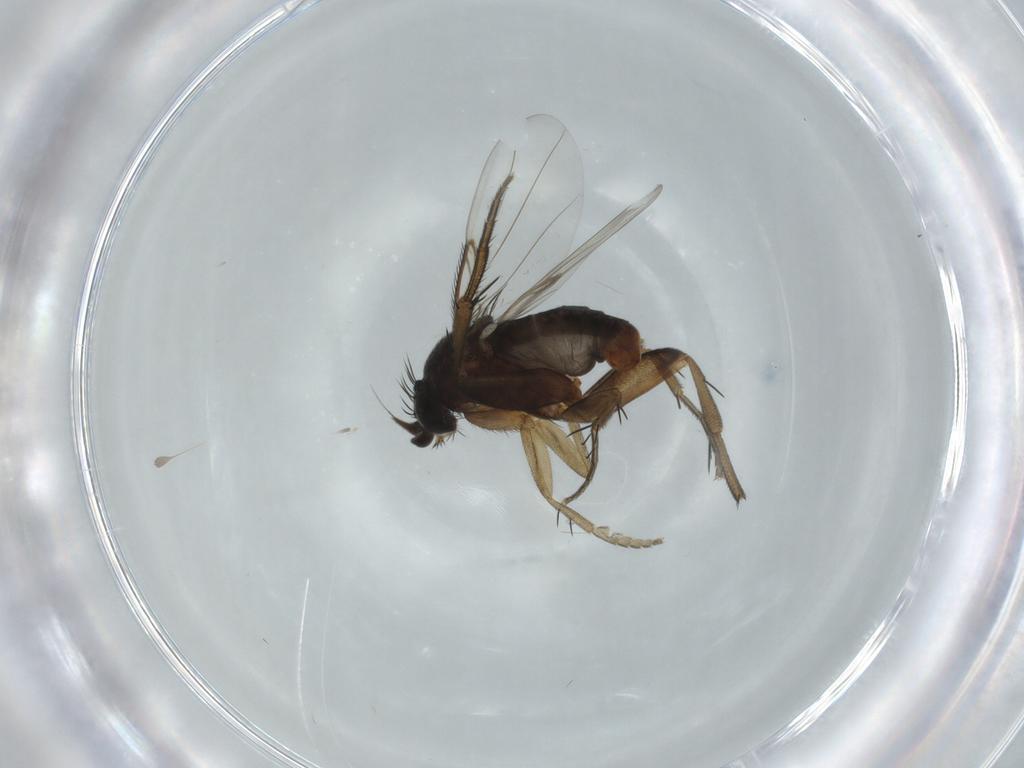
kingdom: Animalia
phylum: Arthropoda
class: Insecta
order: Diptera
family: Phoridae
